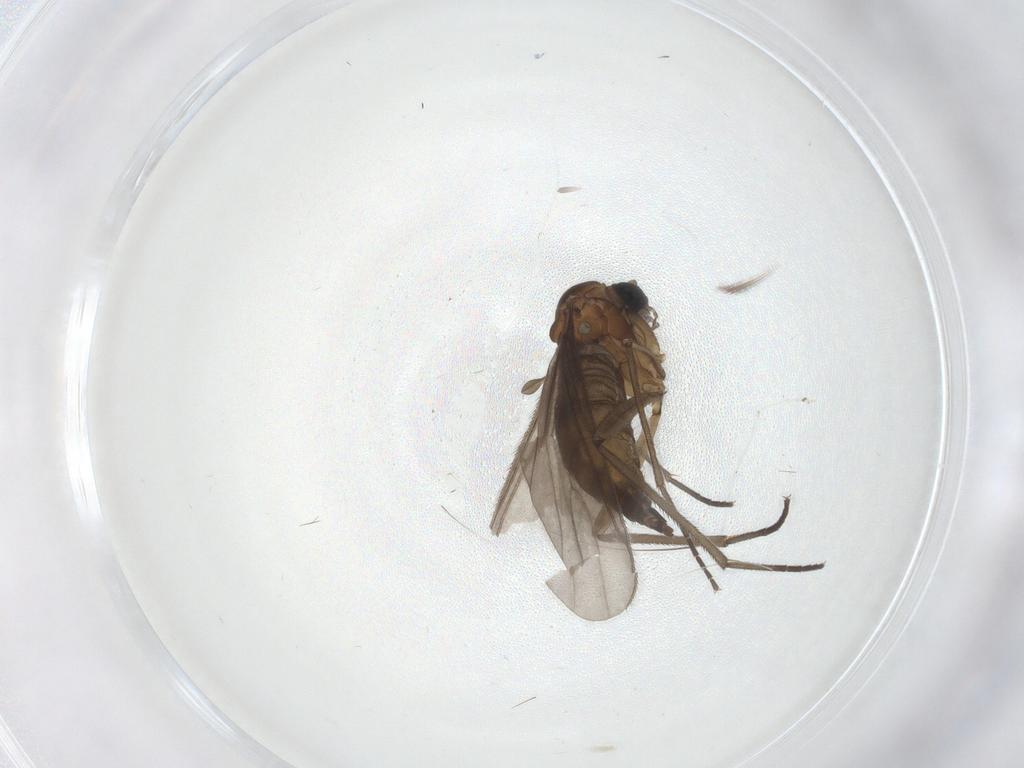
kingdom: Animalia
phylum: Arthropoda
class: Insecta
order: Diptera
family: Sciaridae
